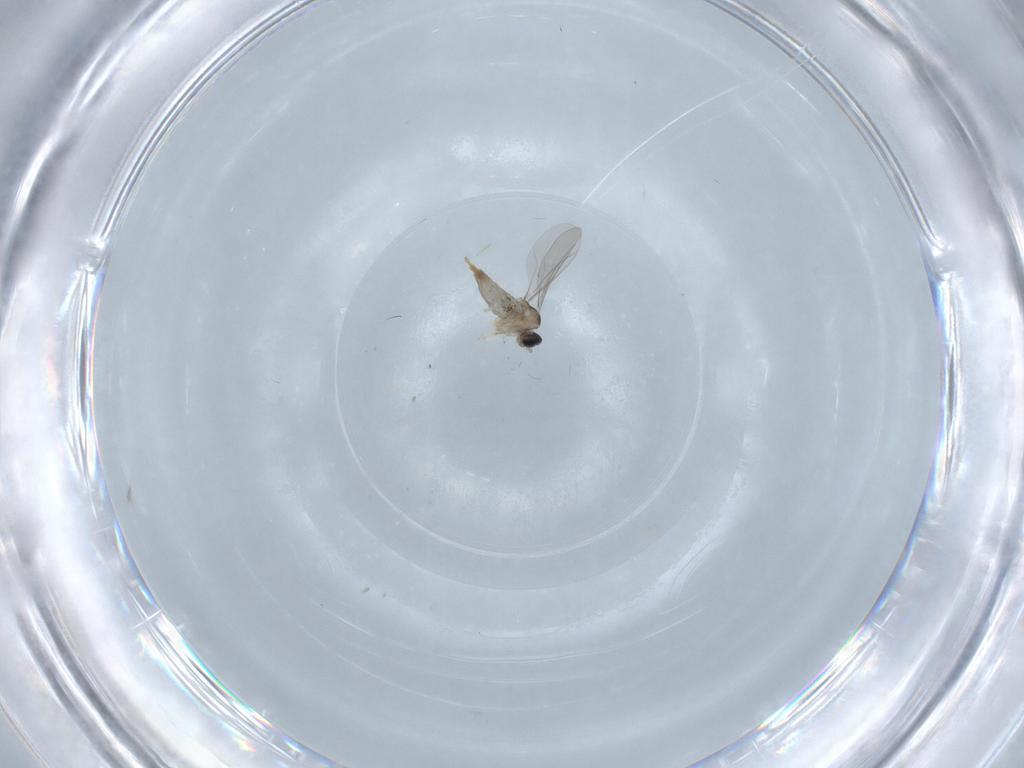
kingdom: Animalia
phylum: Arthropoda
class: Insecta
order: Diptera
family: Cecidomyiidae
